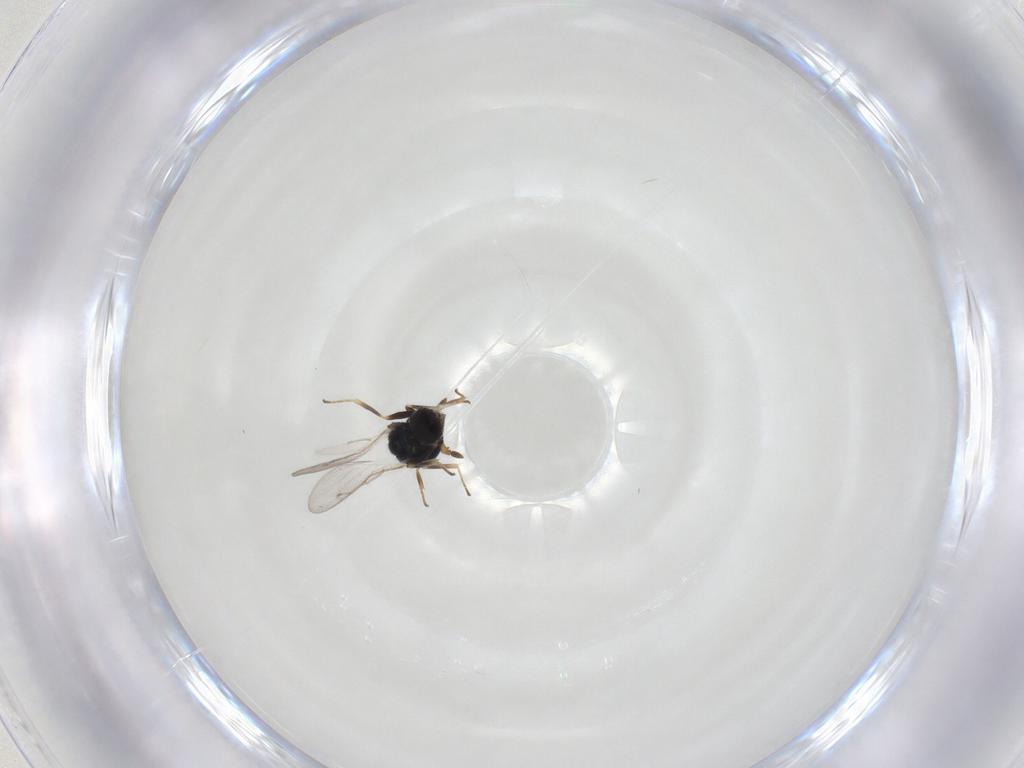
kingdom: Animalia
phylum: Arthropoda
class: Insecta
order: Hymenoptera
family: Pteromalidae
